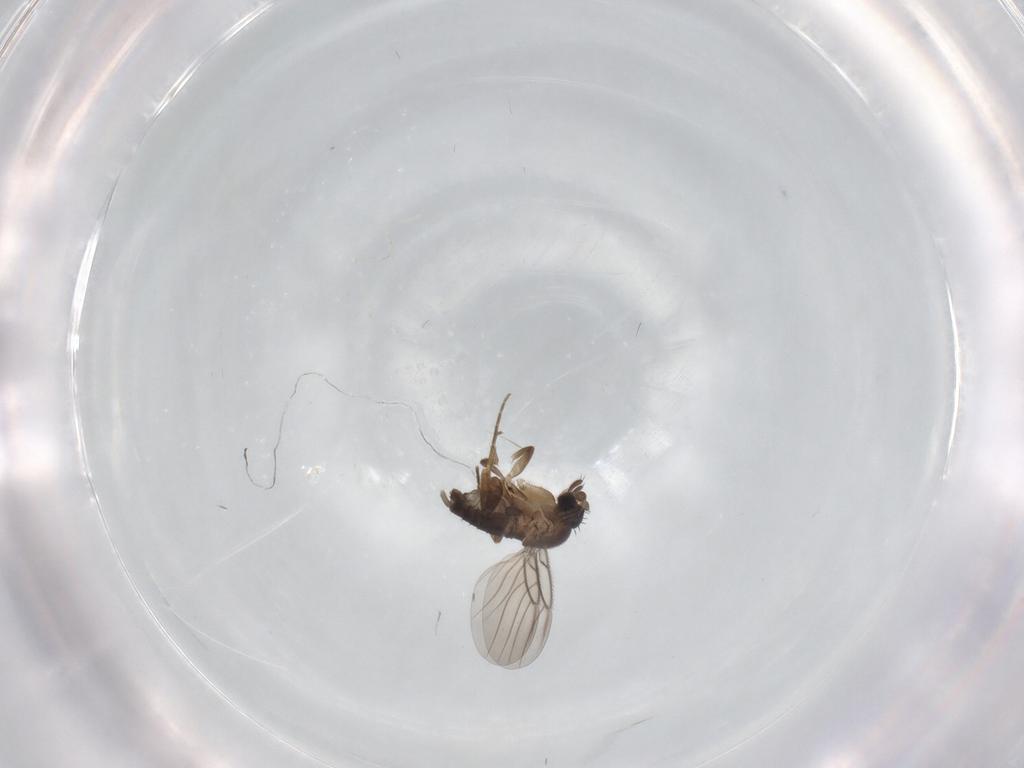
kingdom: Animalia
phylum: Arthropoda
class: Insecta
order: Diptera
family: Phoridae
